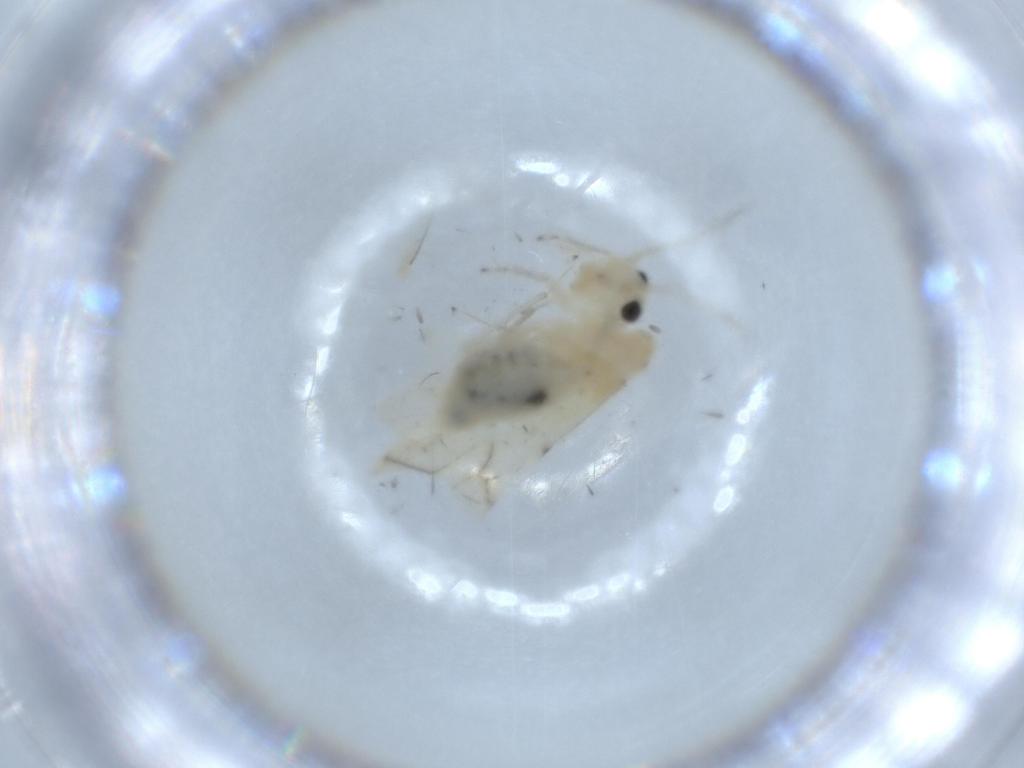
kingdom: Animalia
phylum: Arthropoda
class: Insecta
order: Psocodea
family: Caeciliusidae
